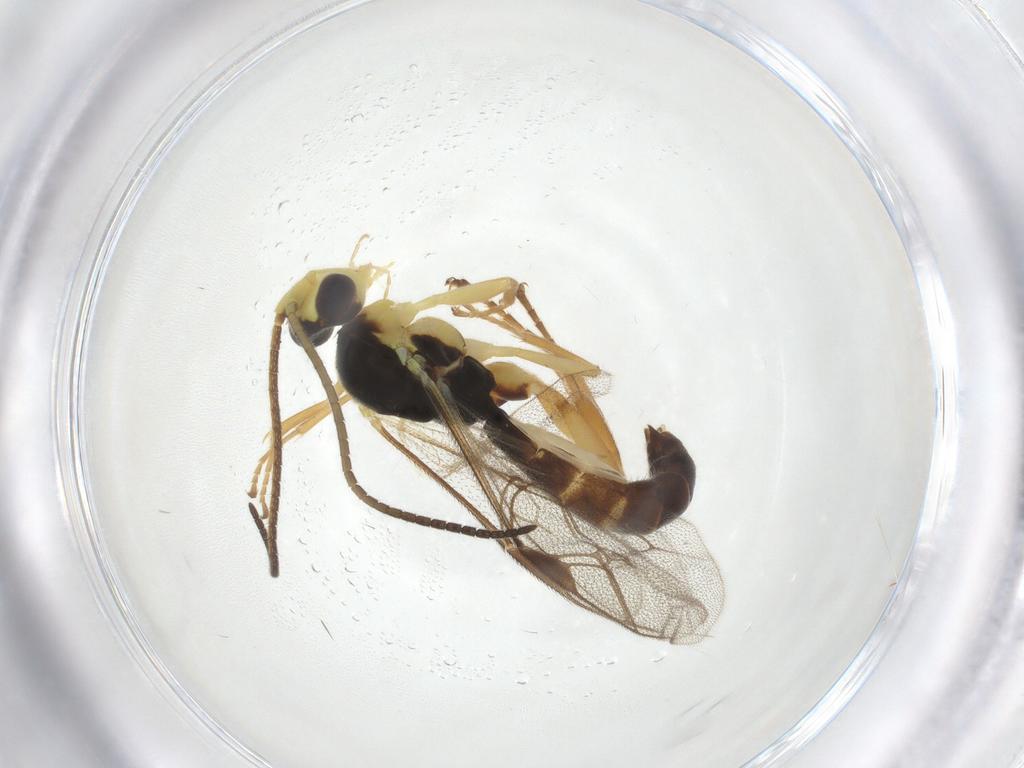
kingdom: Animalia
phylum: Arthropoda
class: Insecta
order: Hymenoptera
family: Ichneumonidae
